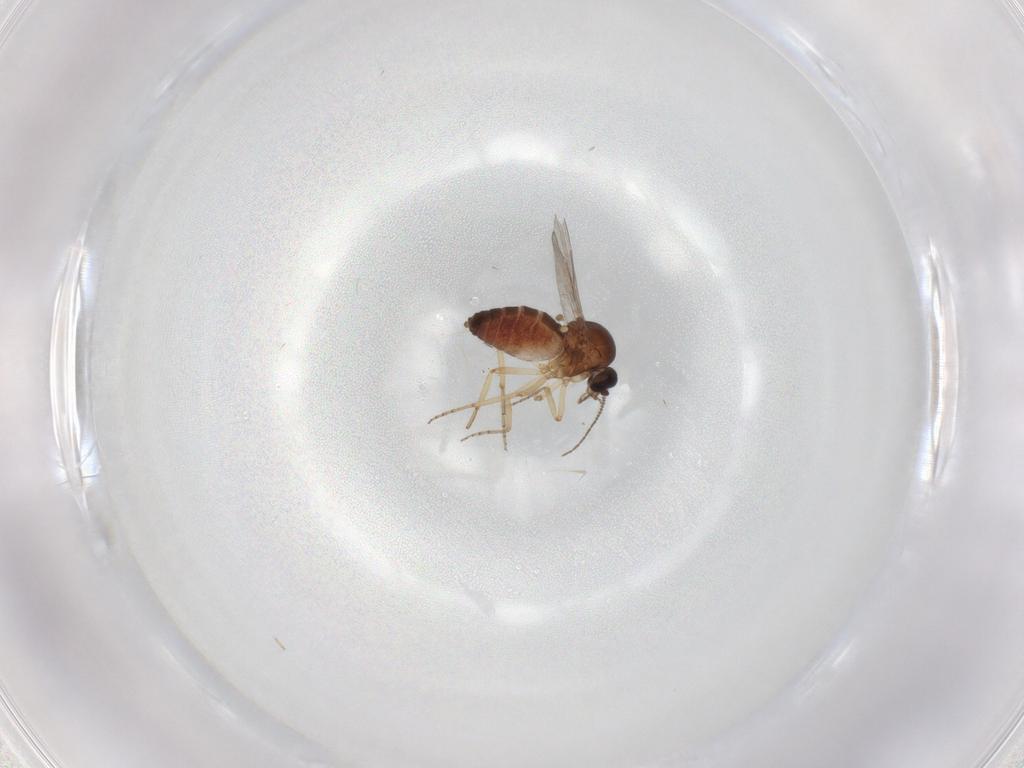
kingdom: Animalia
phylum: Arthropoda
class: Insecta
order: Diptera
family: Ceratopogonidae
